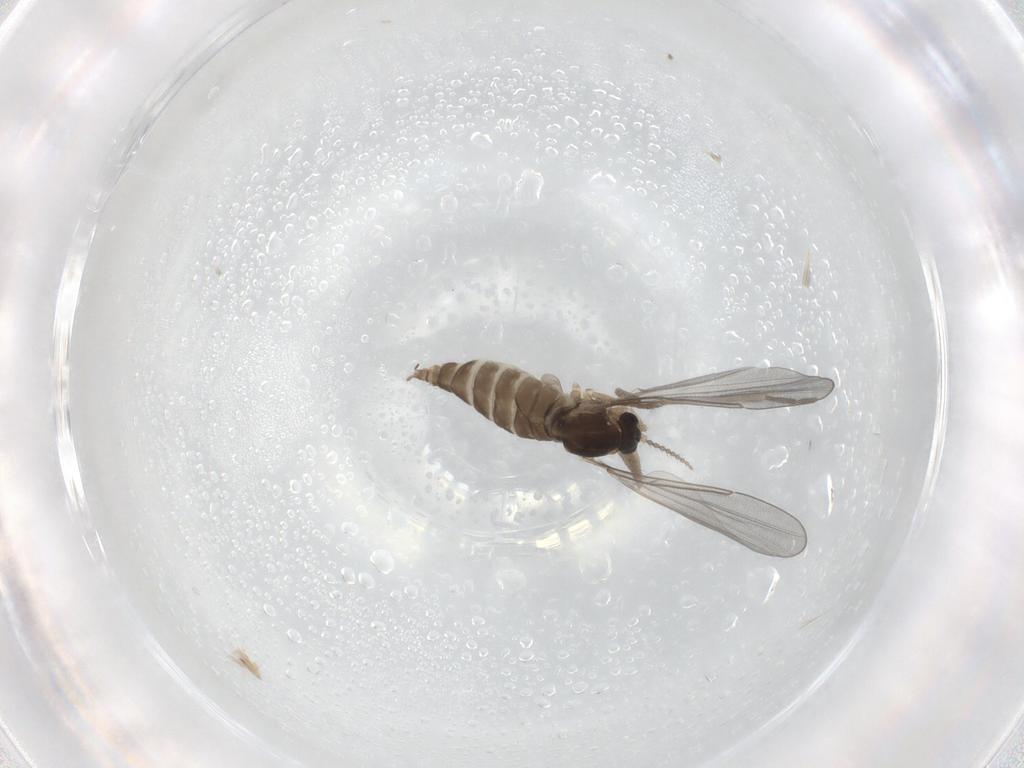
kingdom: Animalia
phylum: Arthropoda
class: Insecta
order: Diptera
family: Cecidomyiidae
